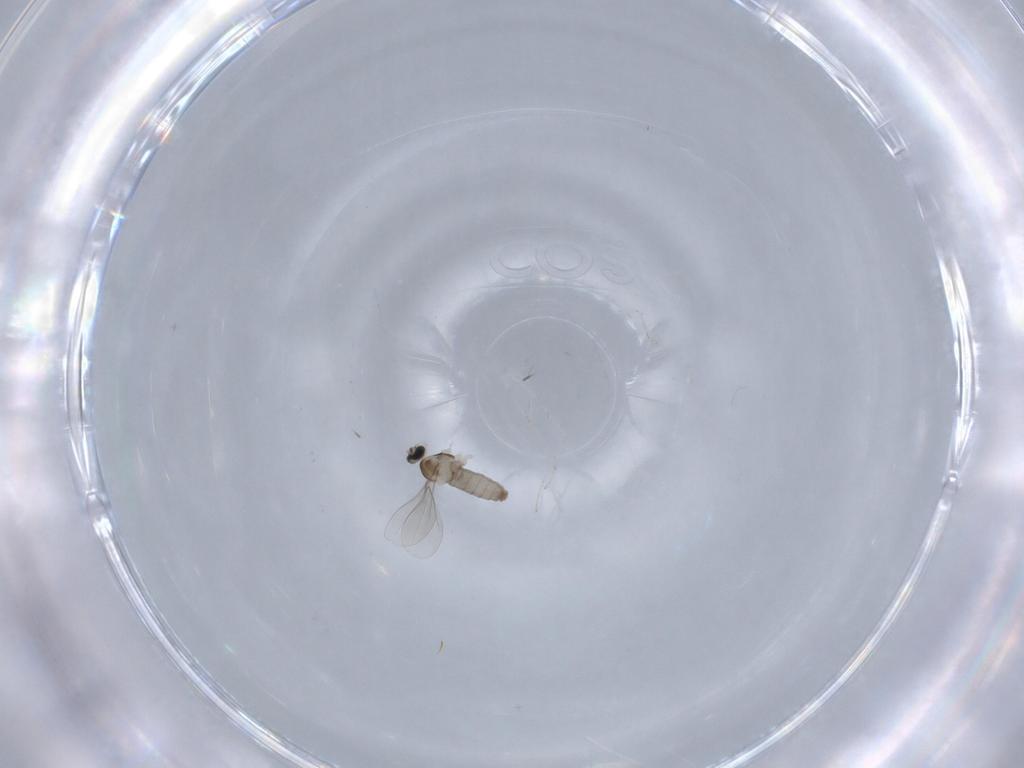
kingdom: Animalia
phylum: Arthropoda
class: Insecta
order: Diptera
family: Cecidomyiidae
